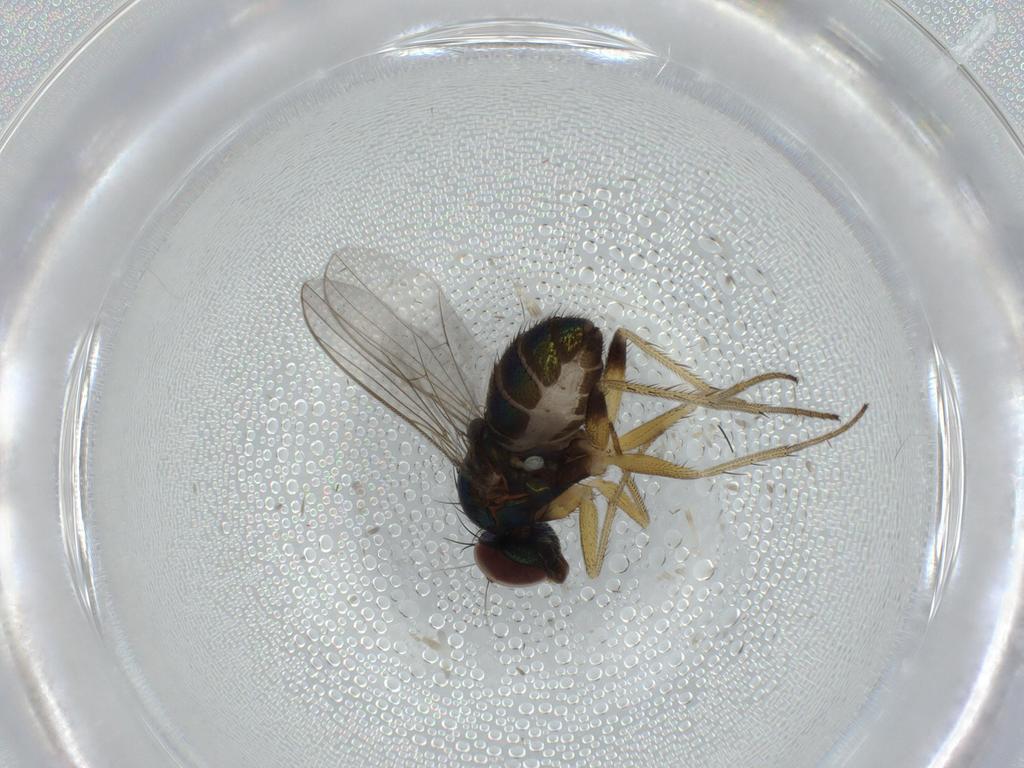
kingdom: Animalia
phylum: Arthropoda
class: Insecta
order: Diptera
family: Dolichopodidae
